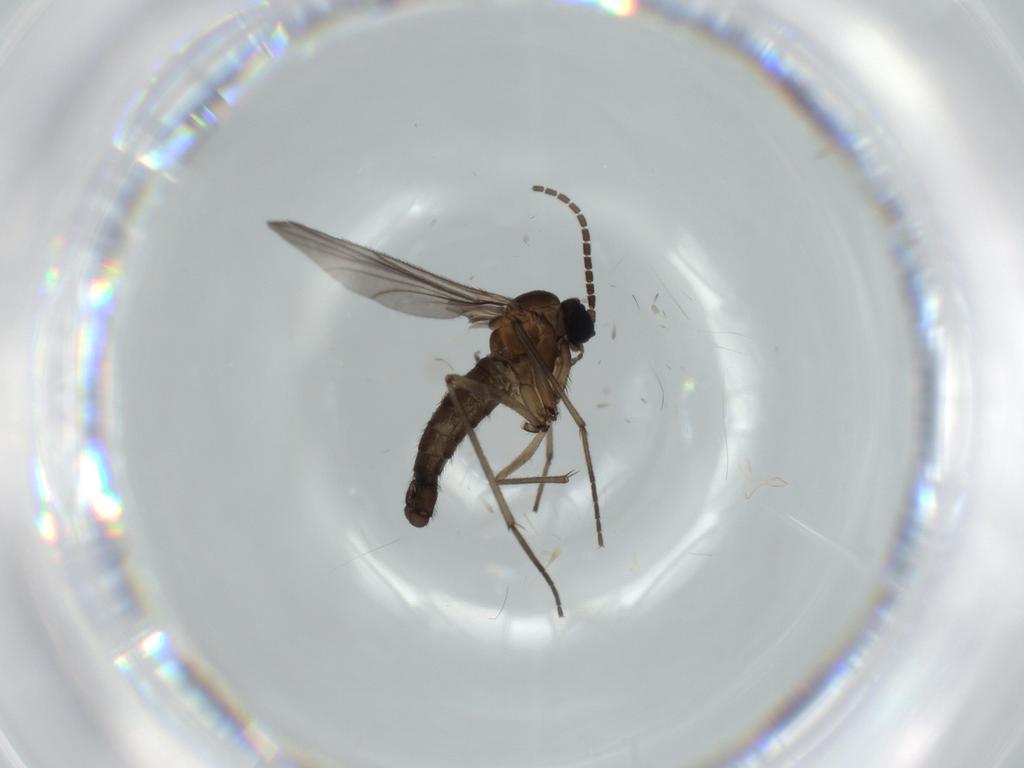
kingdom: Animalia
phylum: Arthropoda
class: Insecta
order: Diptera
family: Sciaridae
